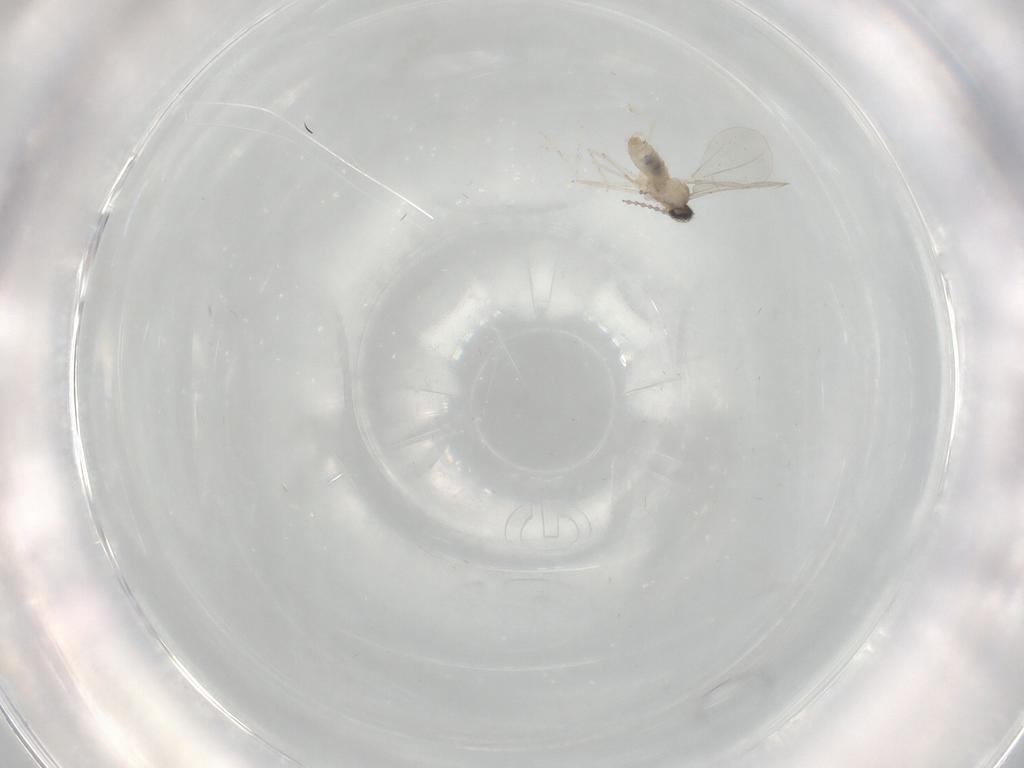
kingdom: Animalia
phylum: Arthropoda
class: Insecta
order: Diptera
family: Cecidomyiidae
